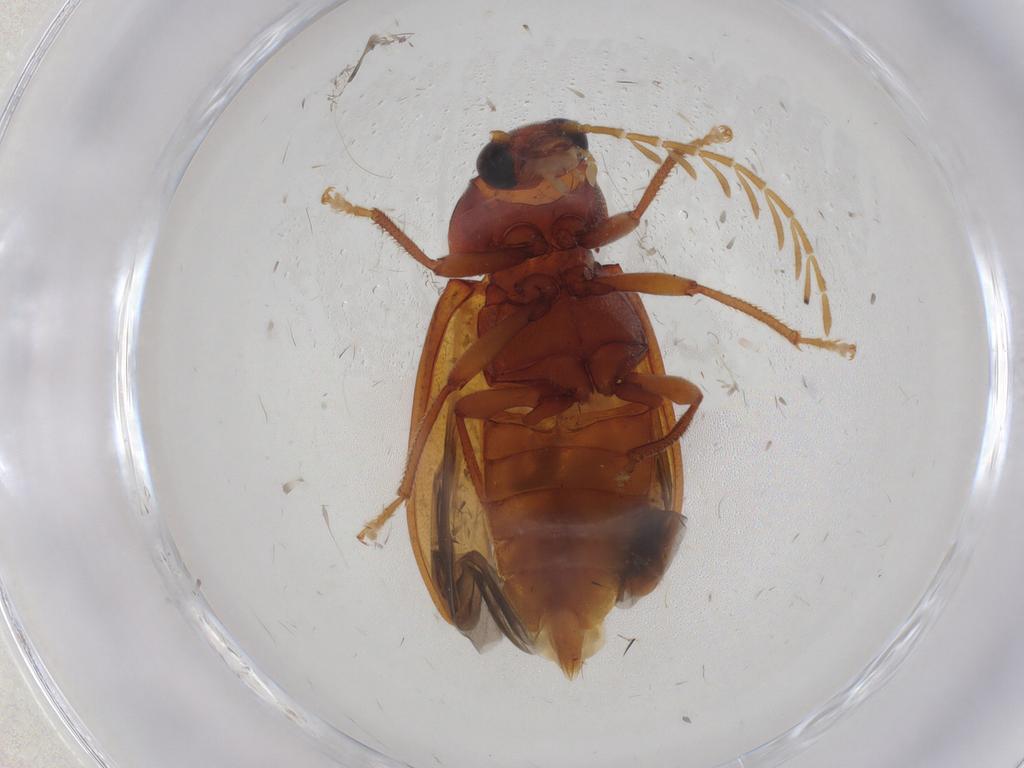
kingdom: Animalia
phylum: Arthropoda
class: Insecta
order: Coleoptera
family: Ptilodactylidae
